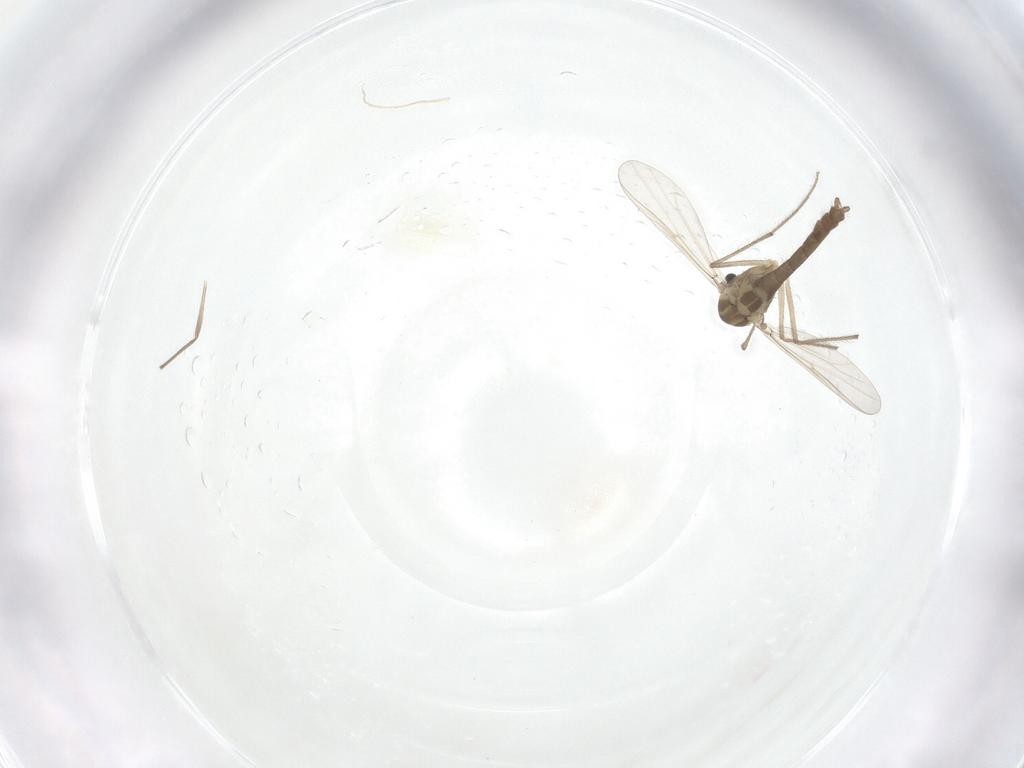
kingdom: Animalia
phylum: Arthropoda
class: Insecta
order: Diptera
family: Chironomidae
